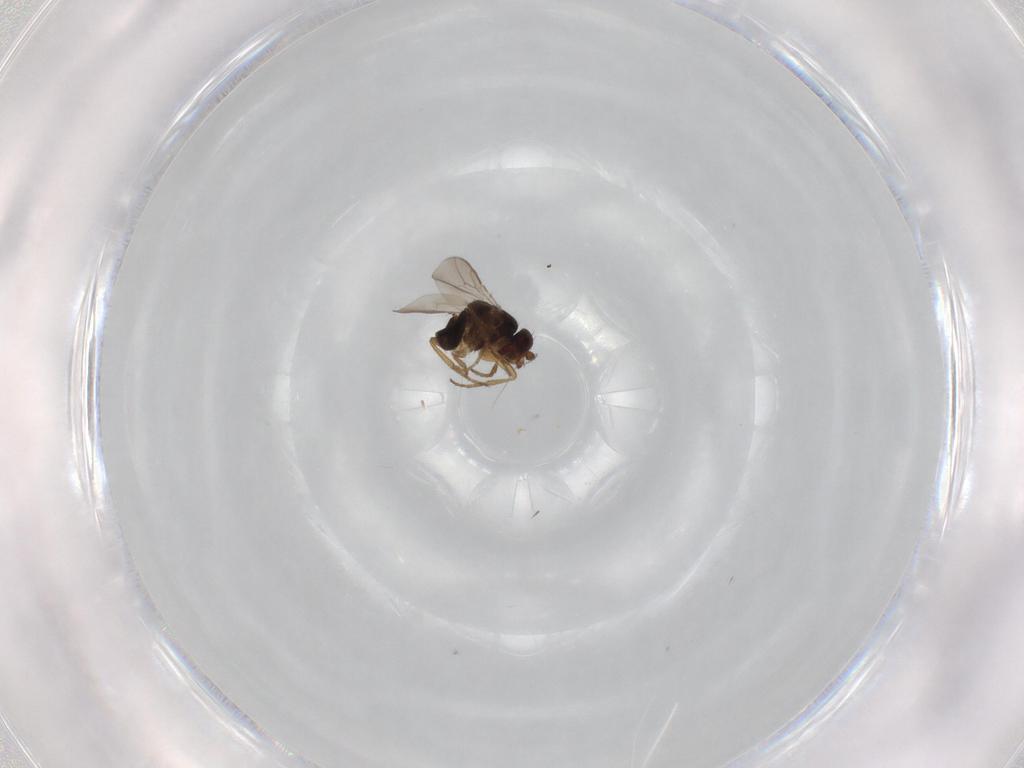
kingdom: Animalia
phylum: Arthropoda
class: Insecta
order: Diptera
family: Sphaeroceridae
